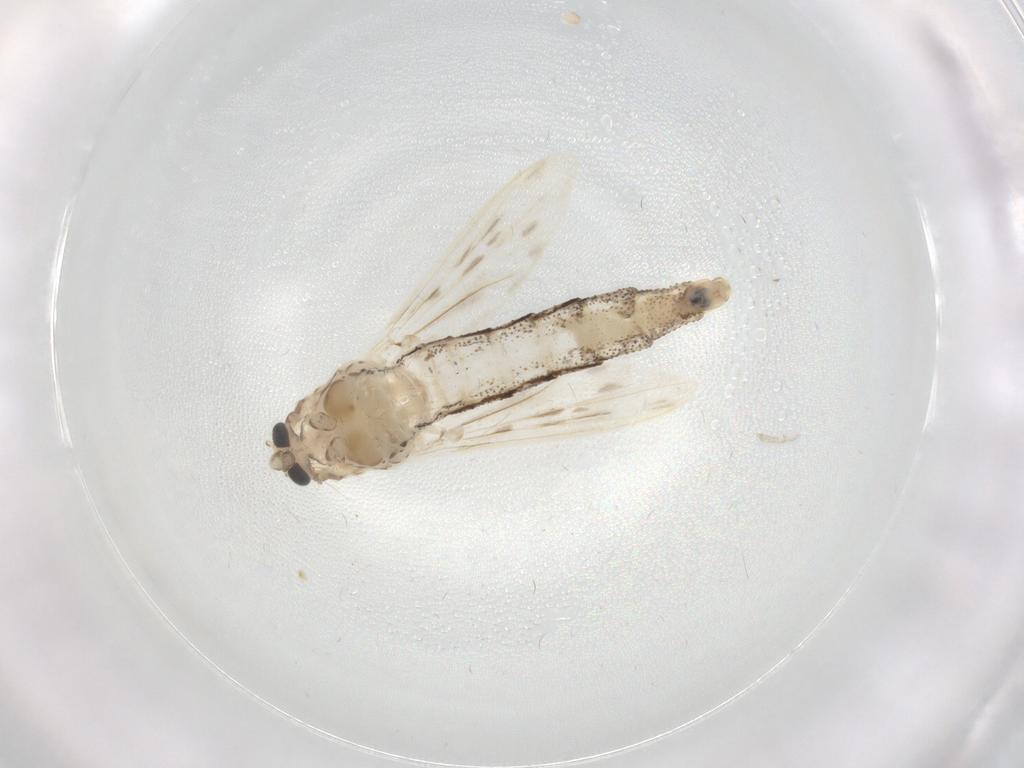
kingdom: Animalia
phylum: Arthropoda
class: Insecta
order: Diptera
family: Chaoboridae
